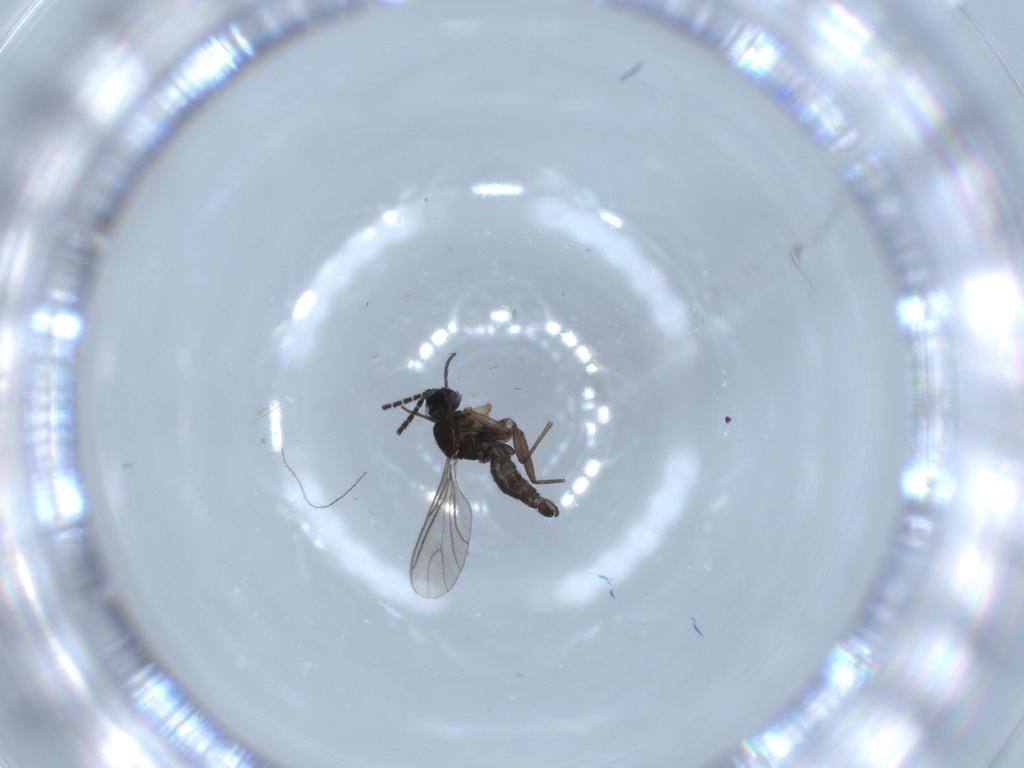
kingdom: Animalia
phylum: Arthropoda
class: Insecta
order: Diptera
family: Sciaridae
